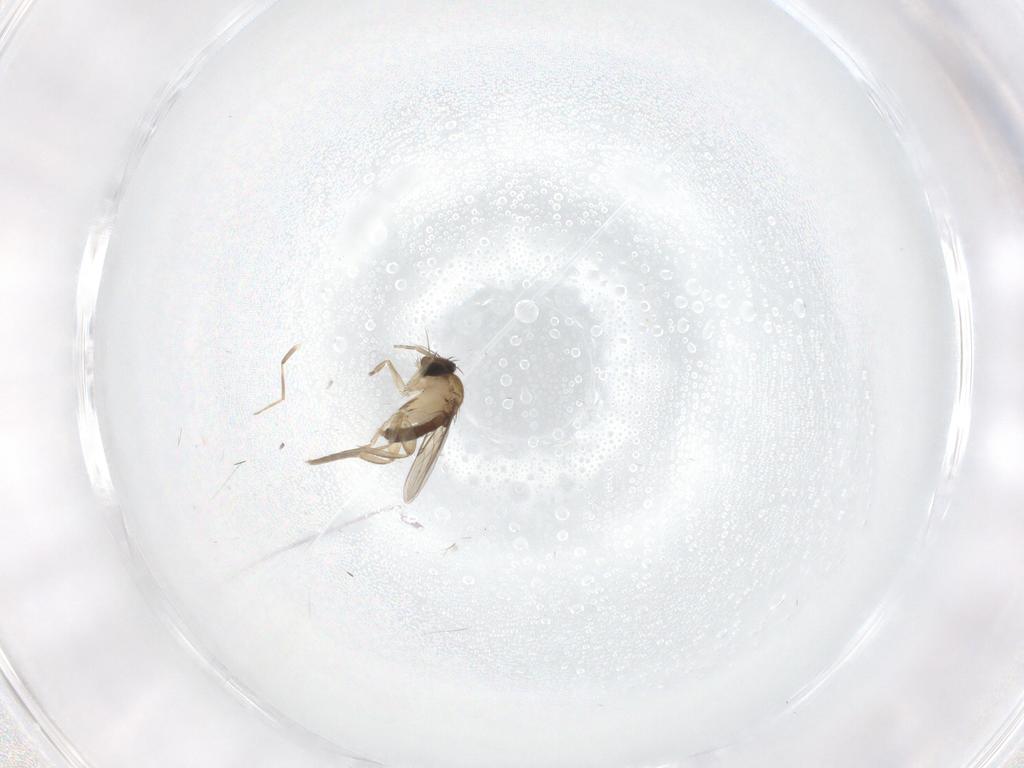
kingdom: Animalia
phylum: Arthropoda
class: Insecta
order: Diptera
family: Phoridae
